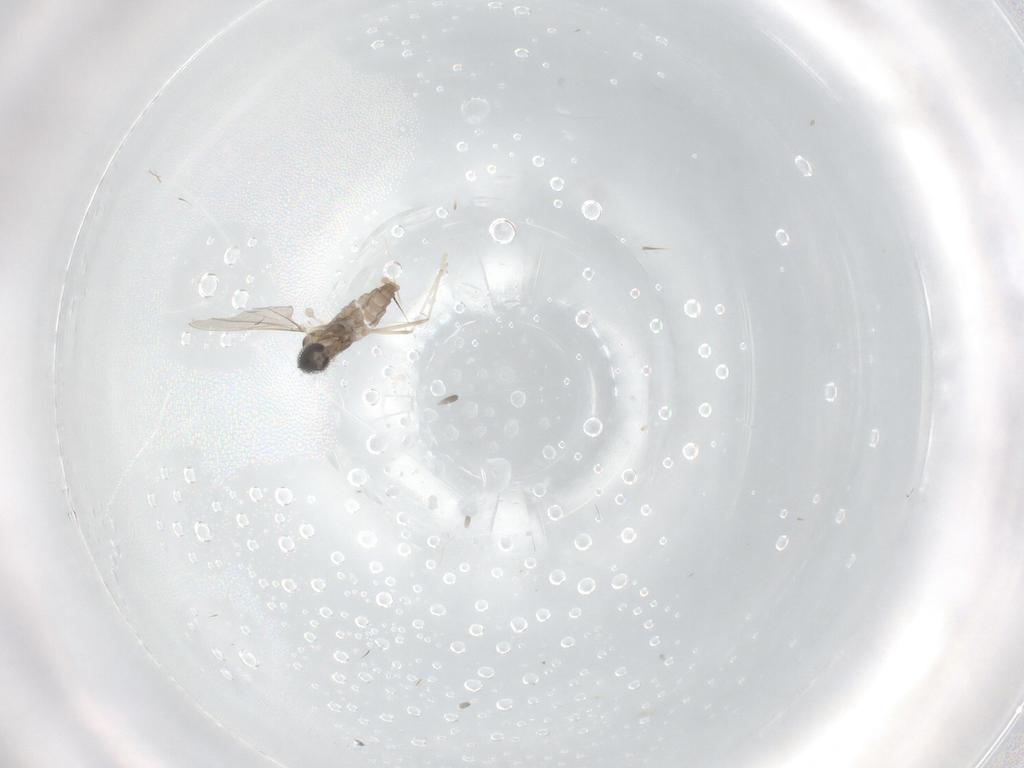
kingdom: Animalia
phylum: Arthropoda
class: Insecta
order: Diptera
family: Cecidomyiidae
